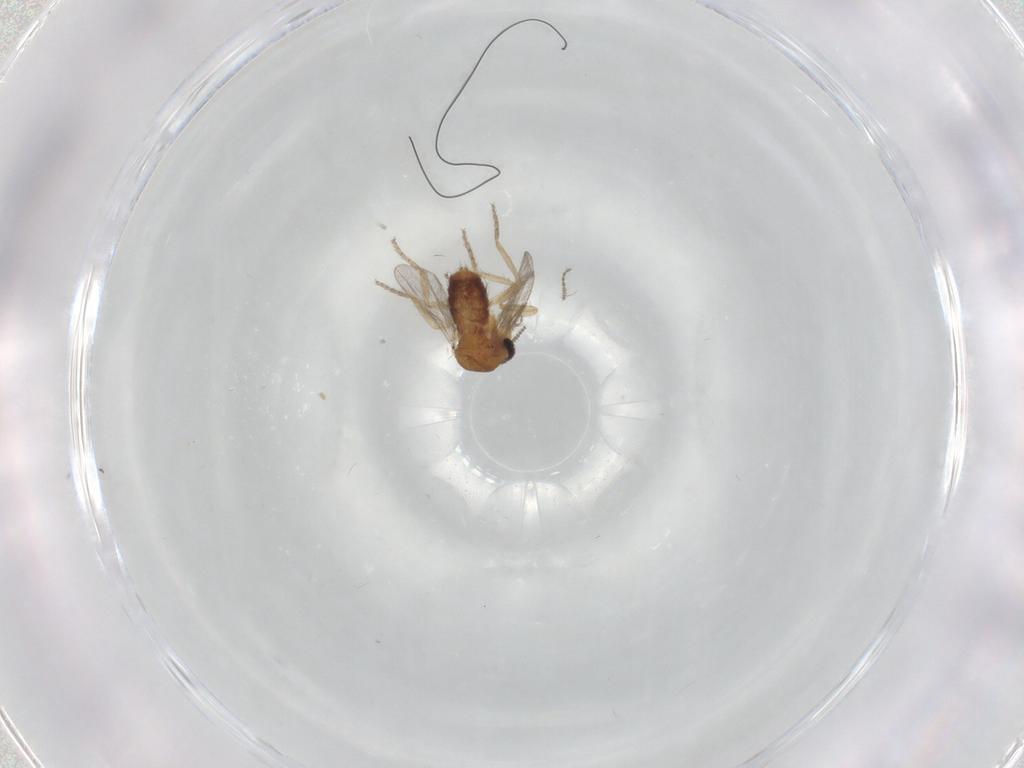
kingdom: Animalia
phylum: Arthropoda
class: Insecta
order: Diptera
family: Ceratopogonidae
